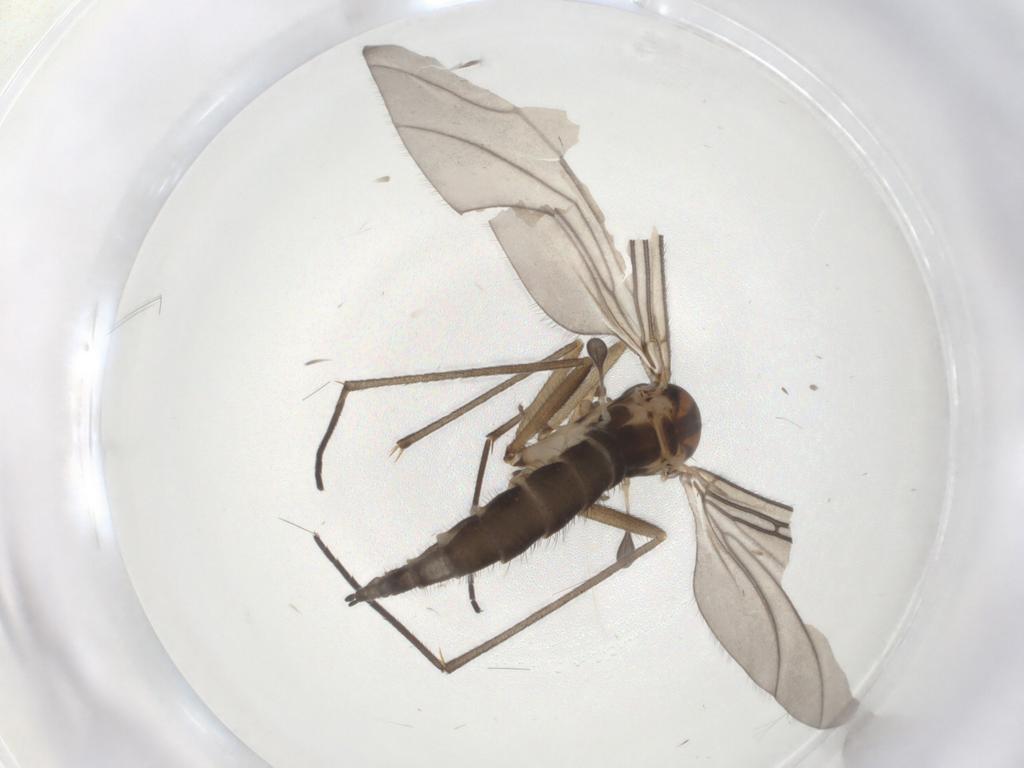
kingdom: Animalia
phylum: Arthropoda
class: Insecta
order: Diptera
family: Sciaridae
